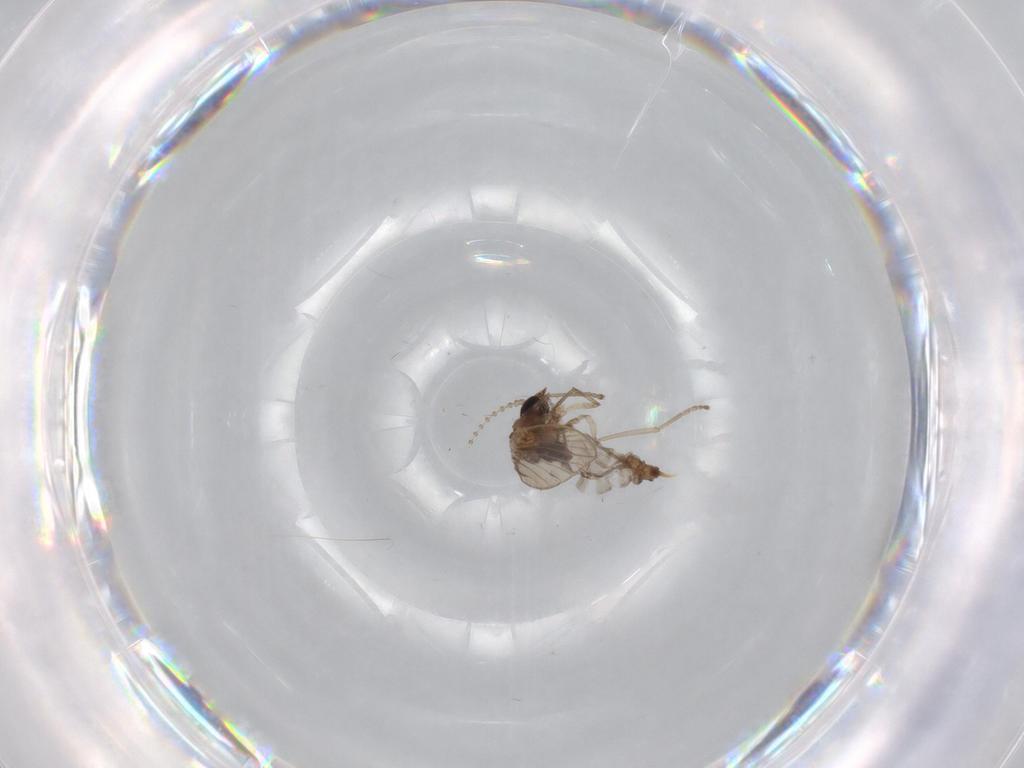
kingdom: Animalia
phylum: Arthropoda
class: Insecta
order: Diptera
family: Psychodidae
